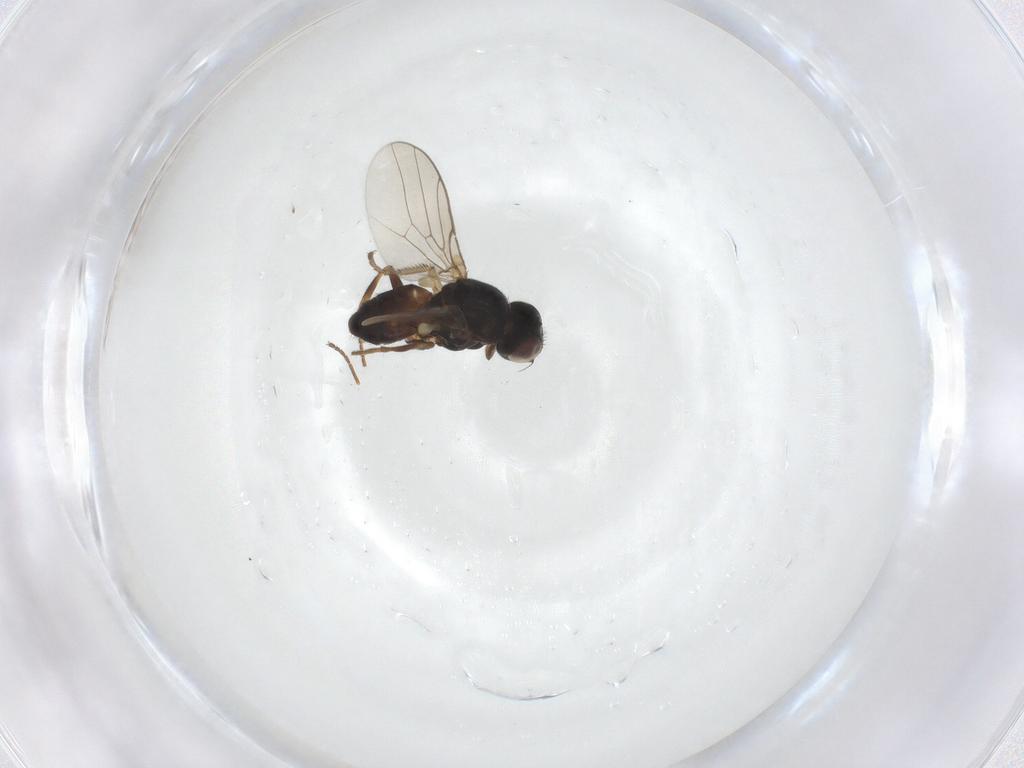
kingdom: Animalia
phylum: Arthropoda
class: Insecta
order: Diptera
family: Chloropidae
